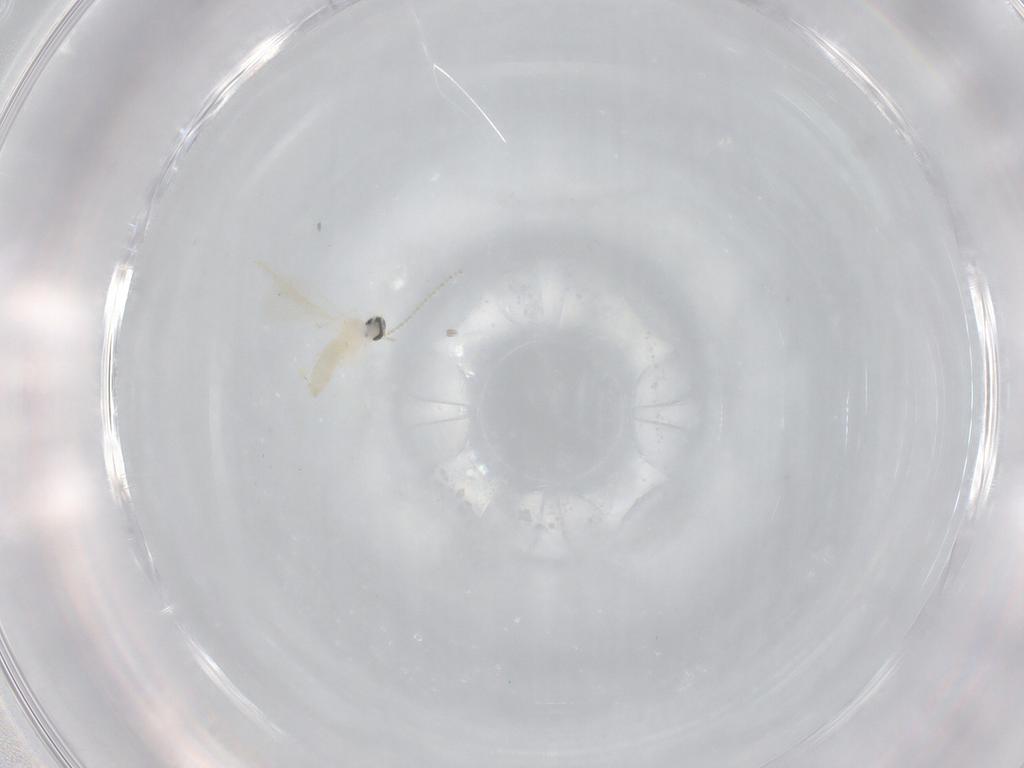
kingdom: Animalia
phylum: Arthropoda
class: Insecta
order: Diptera
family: Cecidomyiidae
